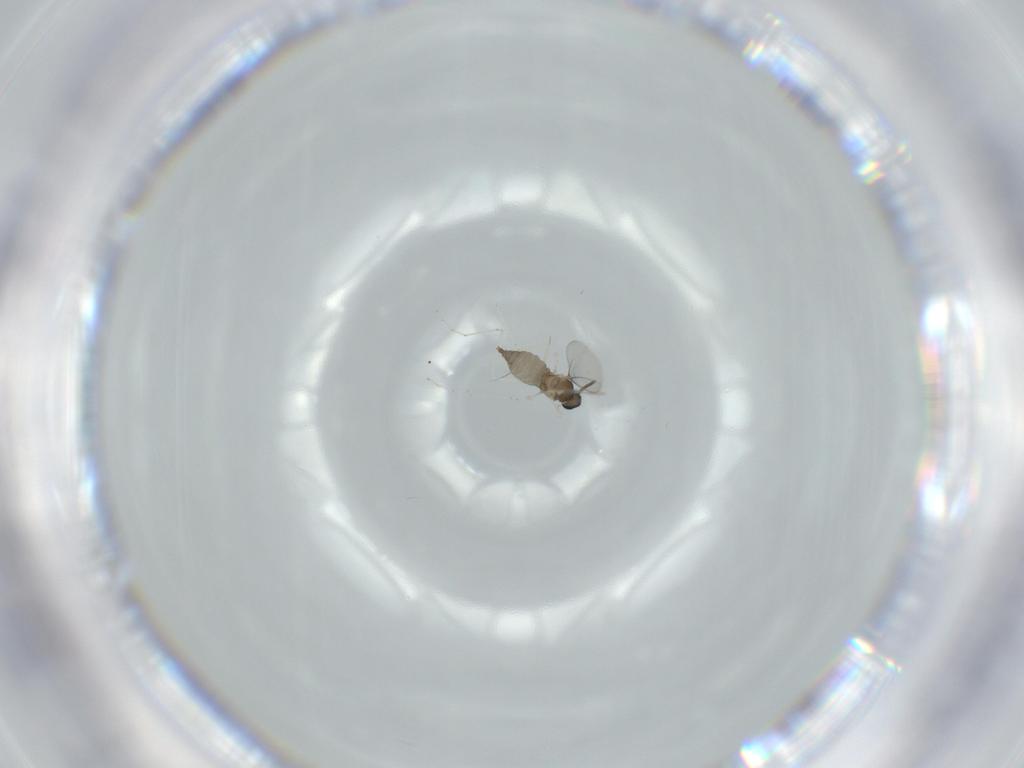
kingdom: Animalia
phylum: Arthropoda
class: Insecta
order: Diptera
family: Cecidomyiidae
